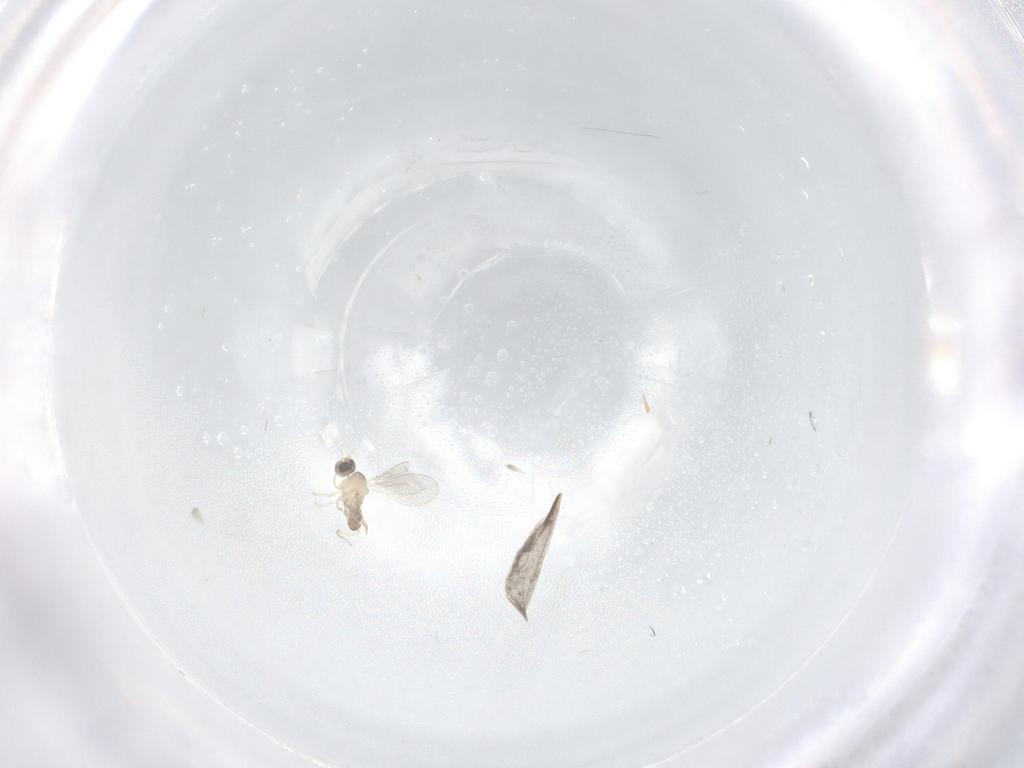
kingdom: Animalia
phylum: Arthropoda
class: Insecta
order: Diptera
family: Cecidomyiidae
